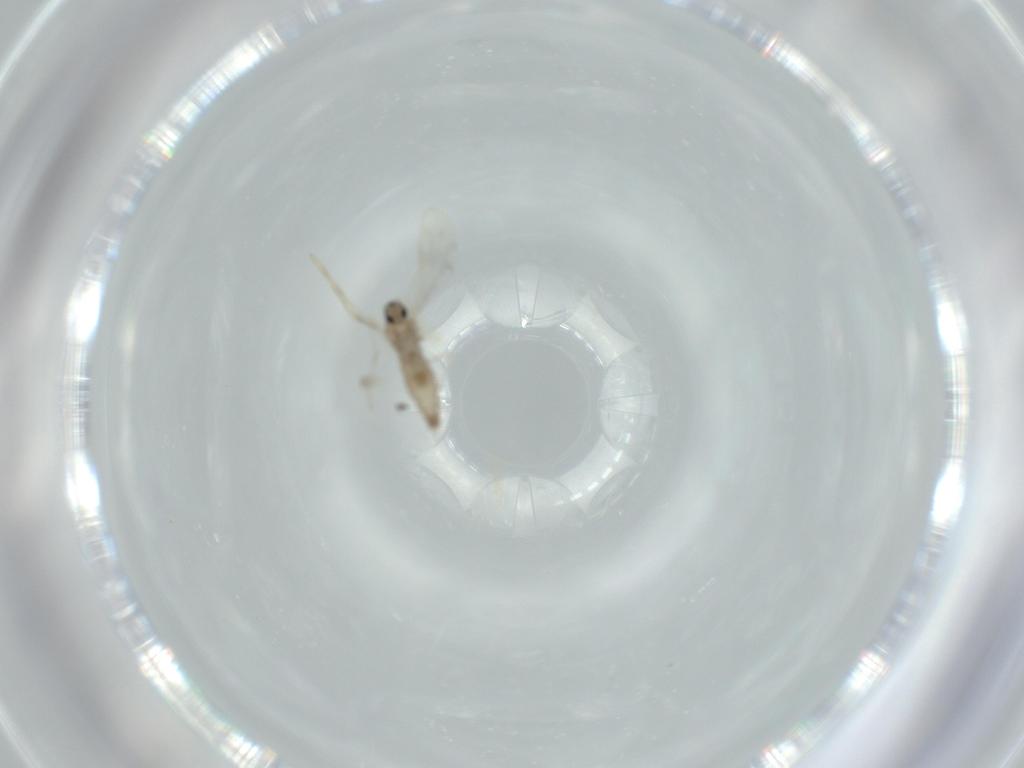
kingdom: Animalia
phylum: Arthropoda
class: Insecta
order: Diptera
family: Cecidomyiidae
